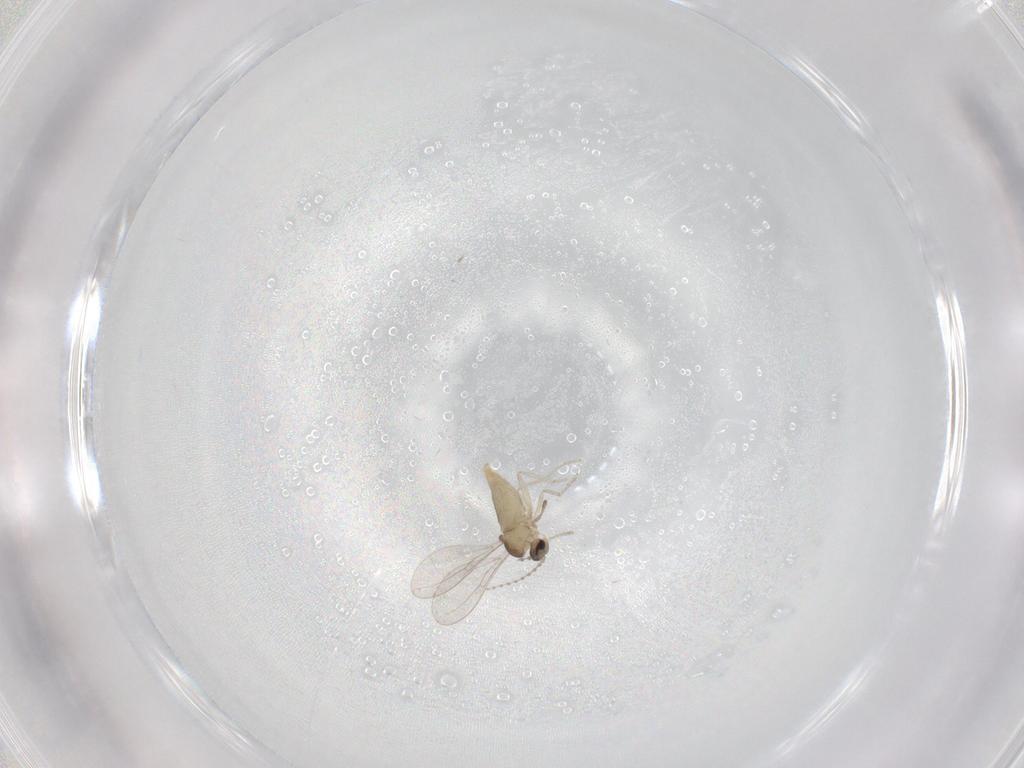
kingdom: Animalia
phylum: Arthropoda
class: Insecta
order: Diptera
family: Cecidomyiidae
